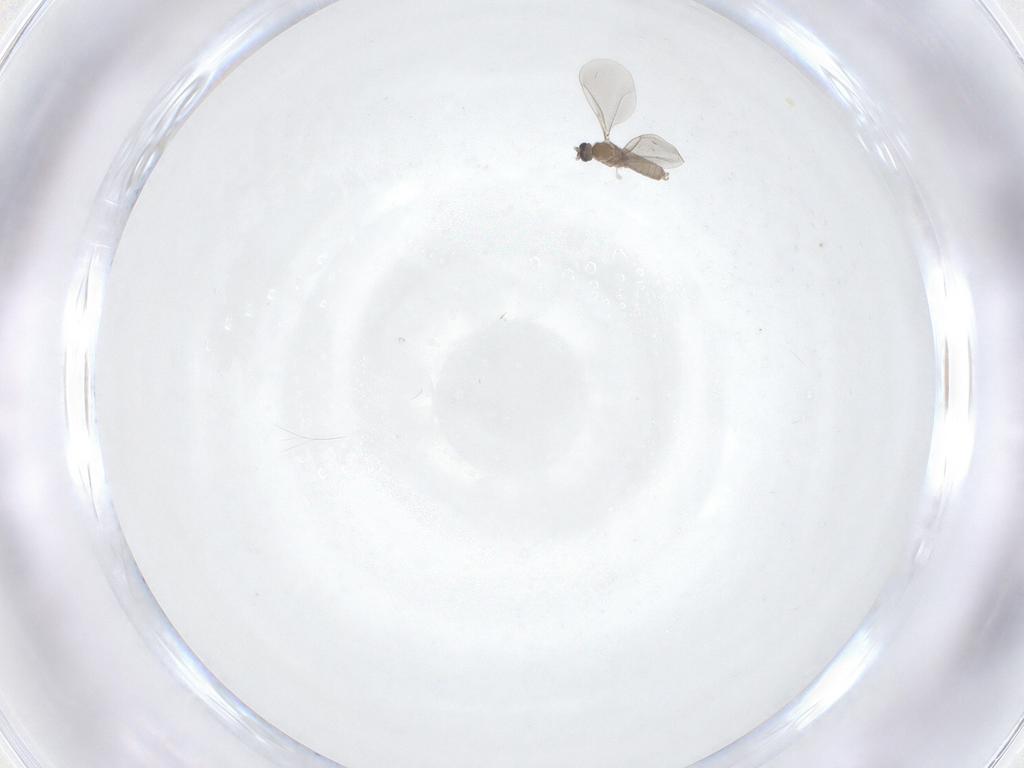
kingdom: Animalia
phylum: Arthropoda
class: Insecta
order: Diptera
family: Cecidomyiidae
